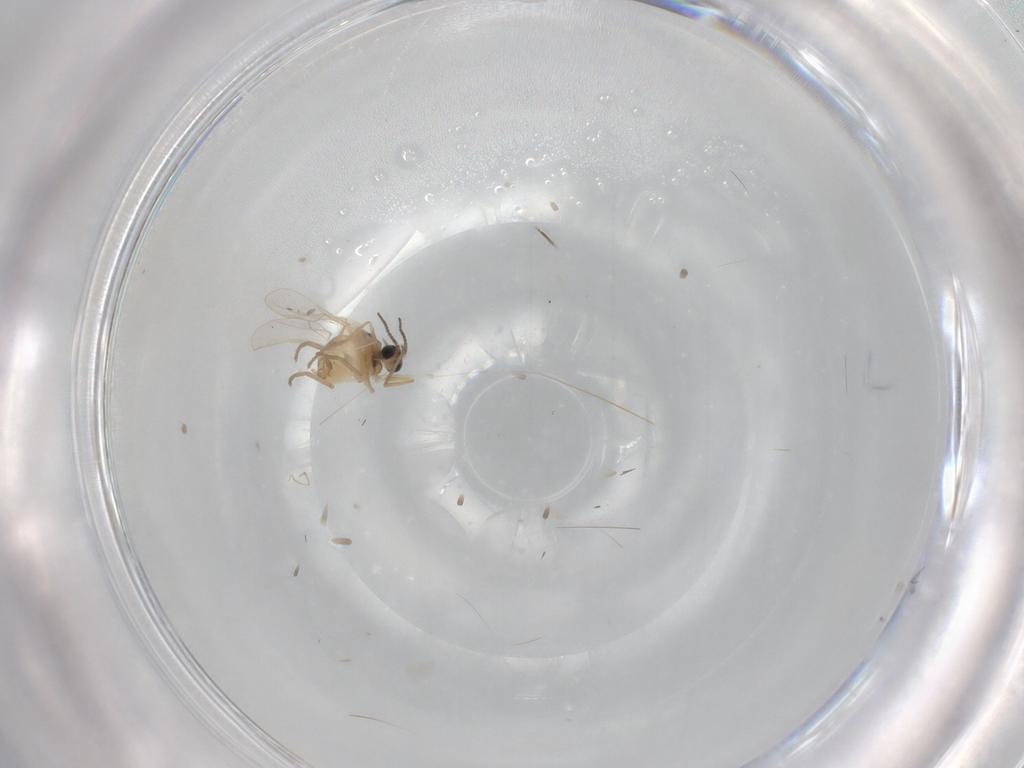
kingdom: Animalia
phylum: Arthropoda
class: Insecta
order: Diptera
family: Cecidomyiidae
